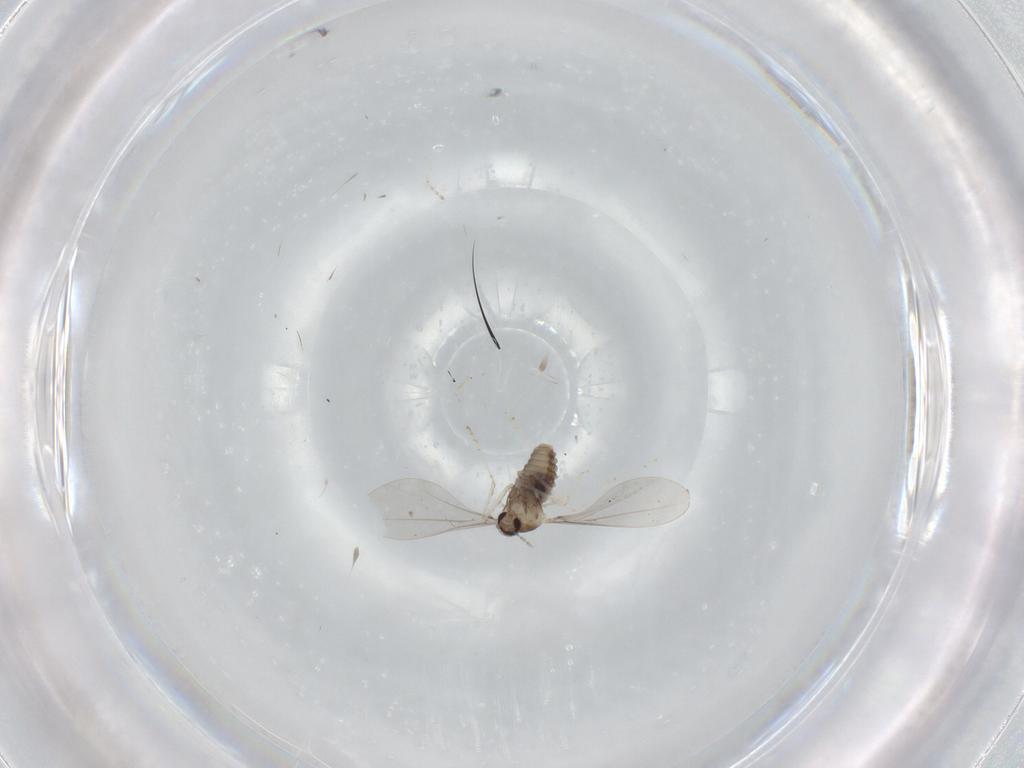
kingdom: Animalia
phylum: Arthropoda
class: Insecta
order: Diptera
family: Cecidomyiidae
